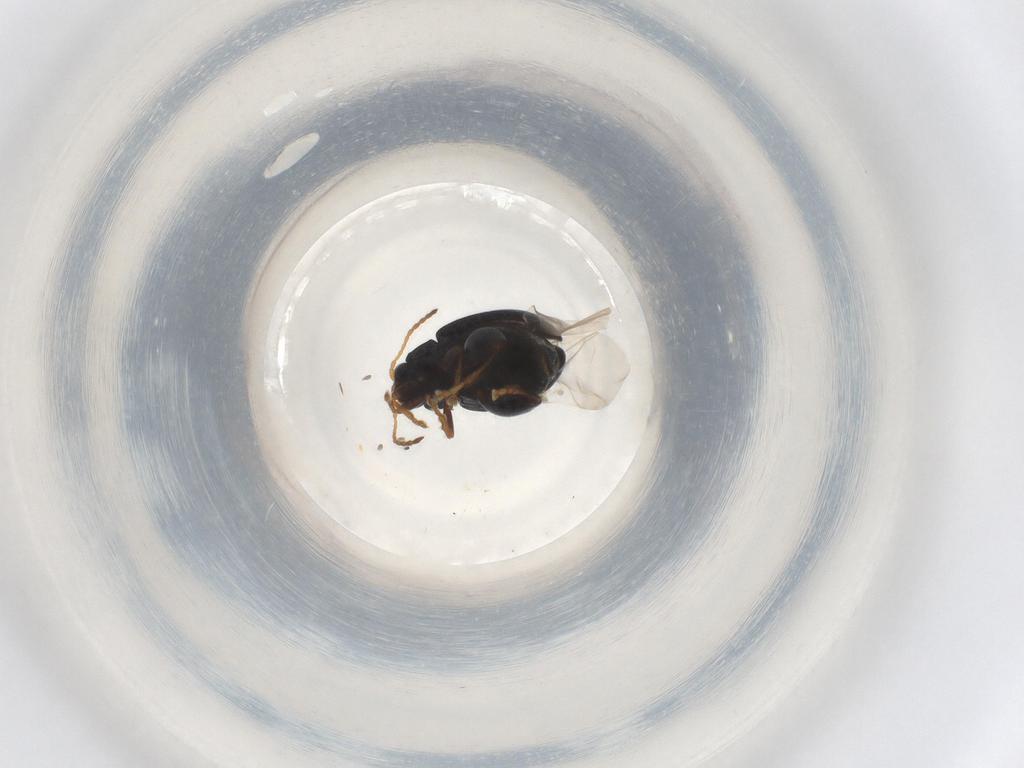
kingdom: Animalia
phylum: Arthropoda
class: Insecta
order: Coleoptera
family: Chrysomelidae
